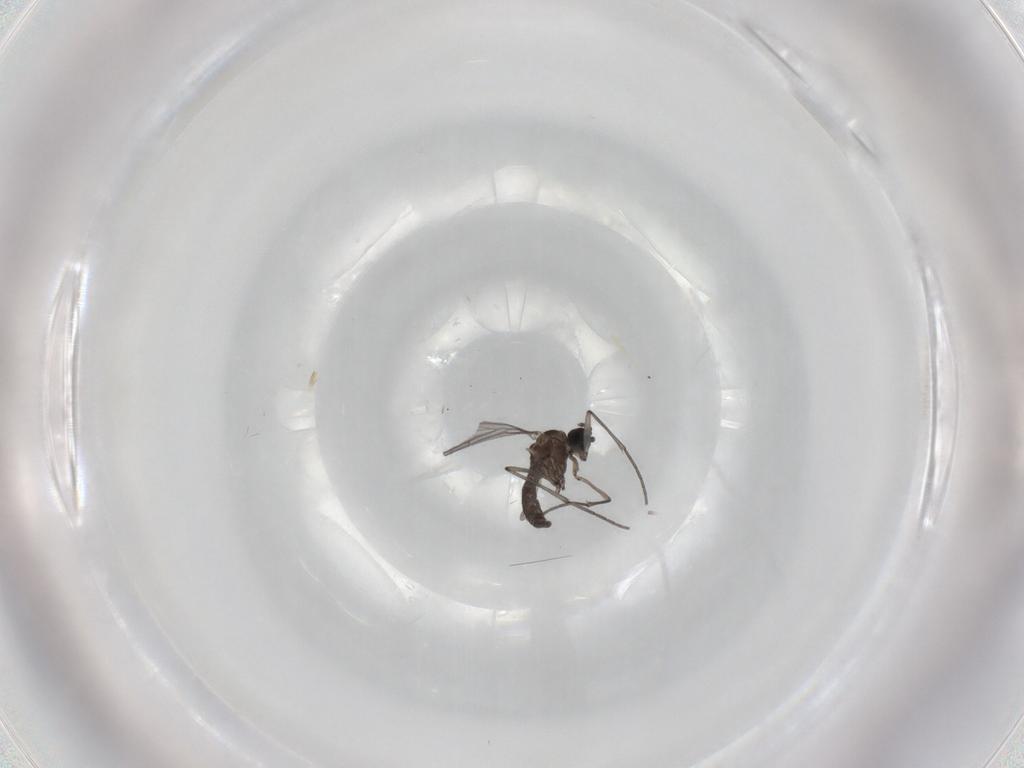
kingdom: Animalia
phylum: Arthropoda
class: Insecta
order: Diptera
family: Sciaridae
